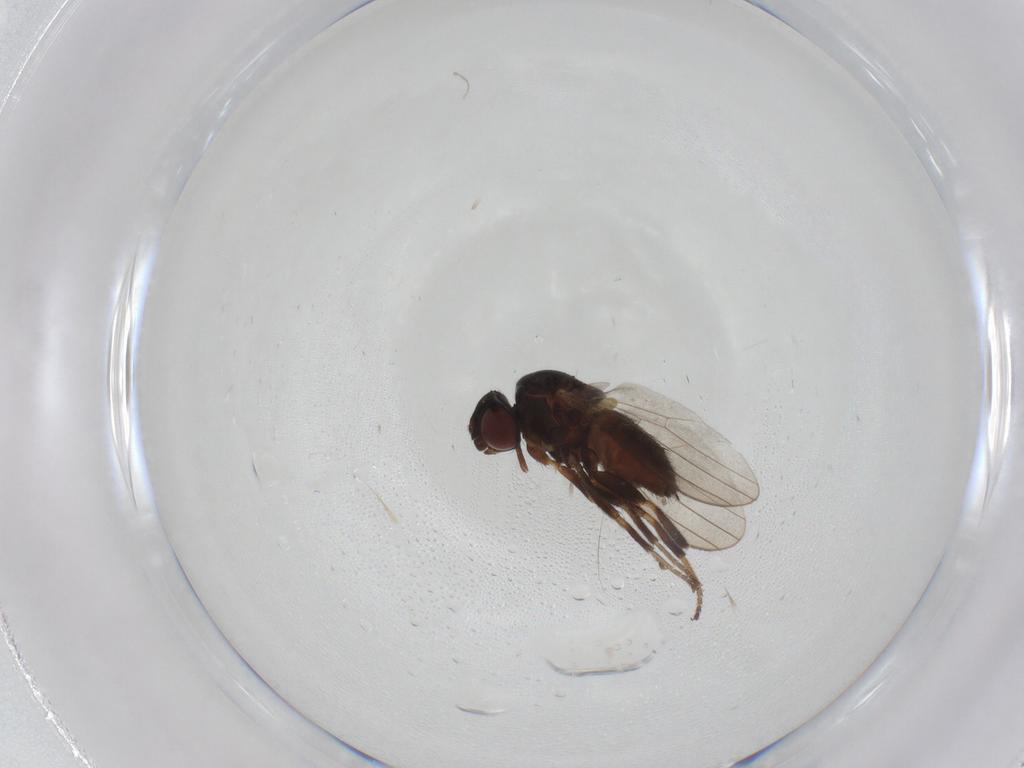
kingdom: Animalia
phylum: Arthropoda
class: Insecta
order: Diptera
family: Milichiidae
